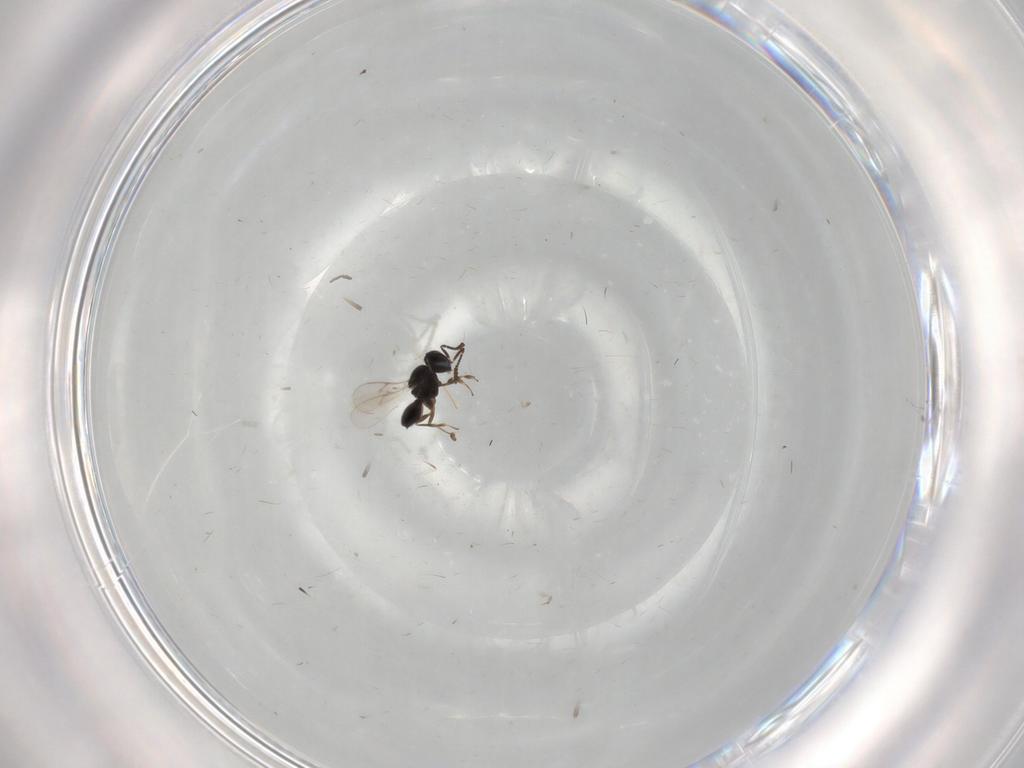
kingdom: Animalia
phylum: Arthropoda
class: Insecta
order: Hymenoptera
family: Scelionidae
